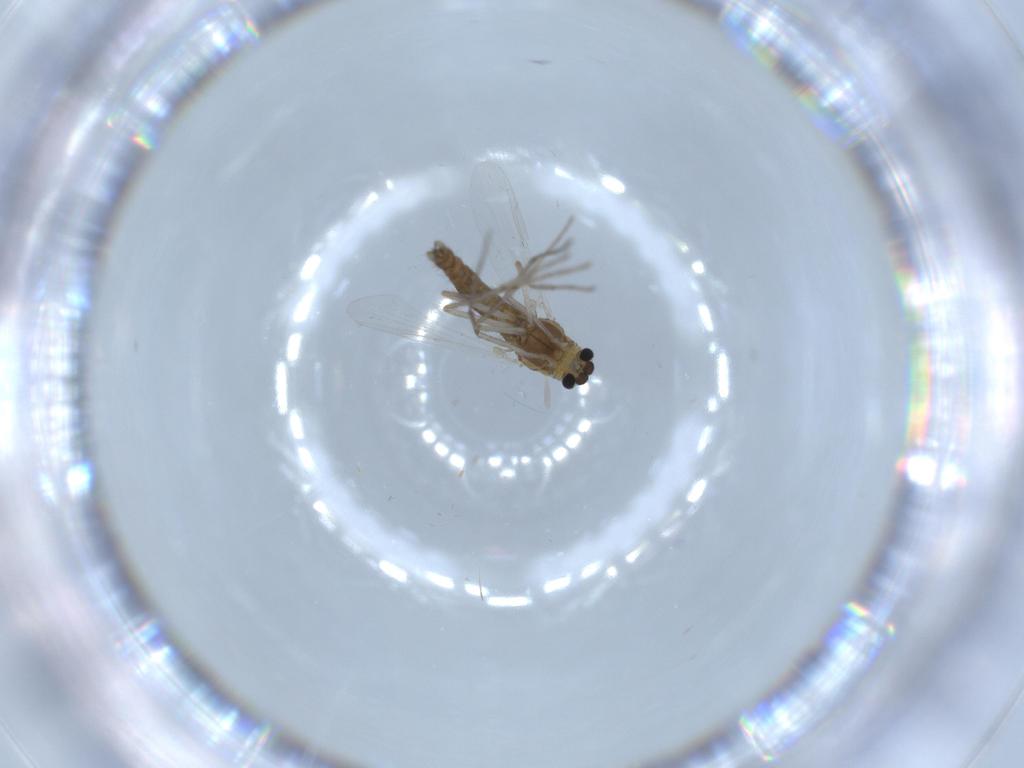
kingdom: Animalia
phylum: Arthropoda
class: Insecta
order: Diptera
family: Chironomidae
